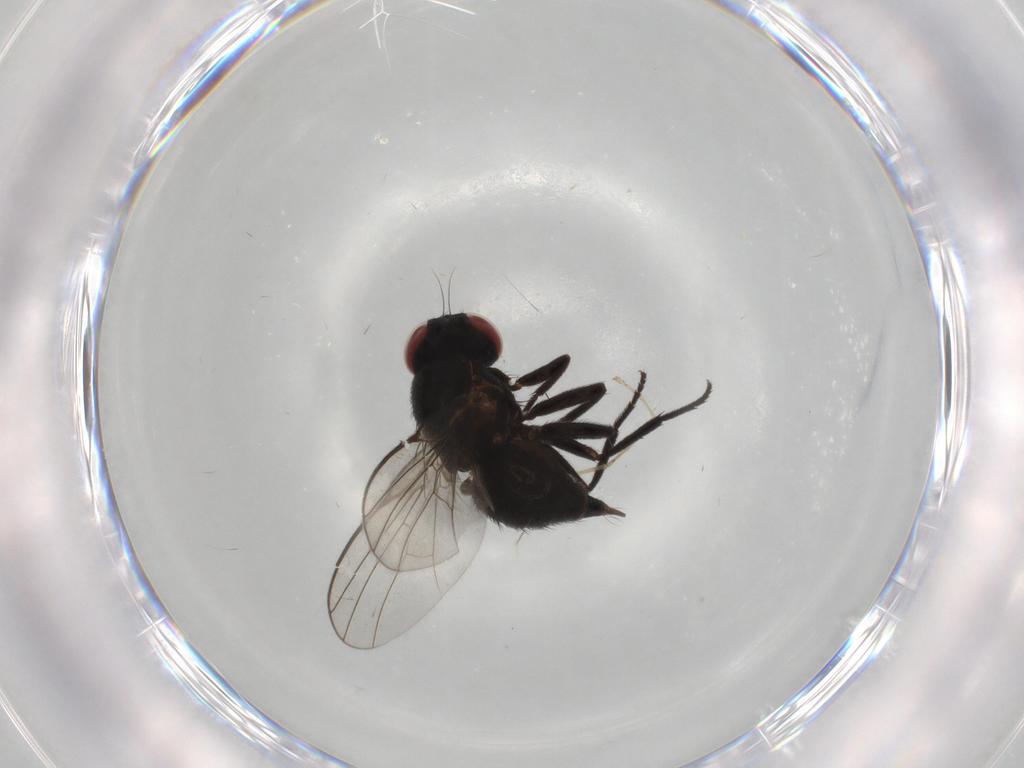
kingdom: Animalia
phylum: Arthropoda
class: Insecta
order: Diptera
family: Agromyzidae
